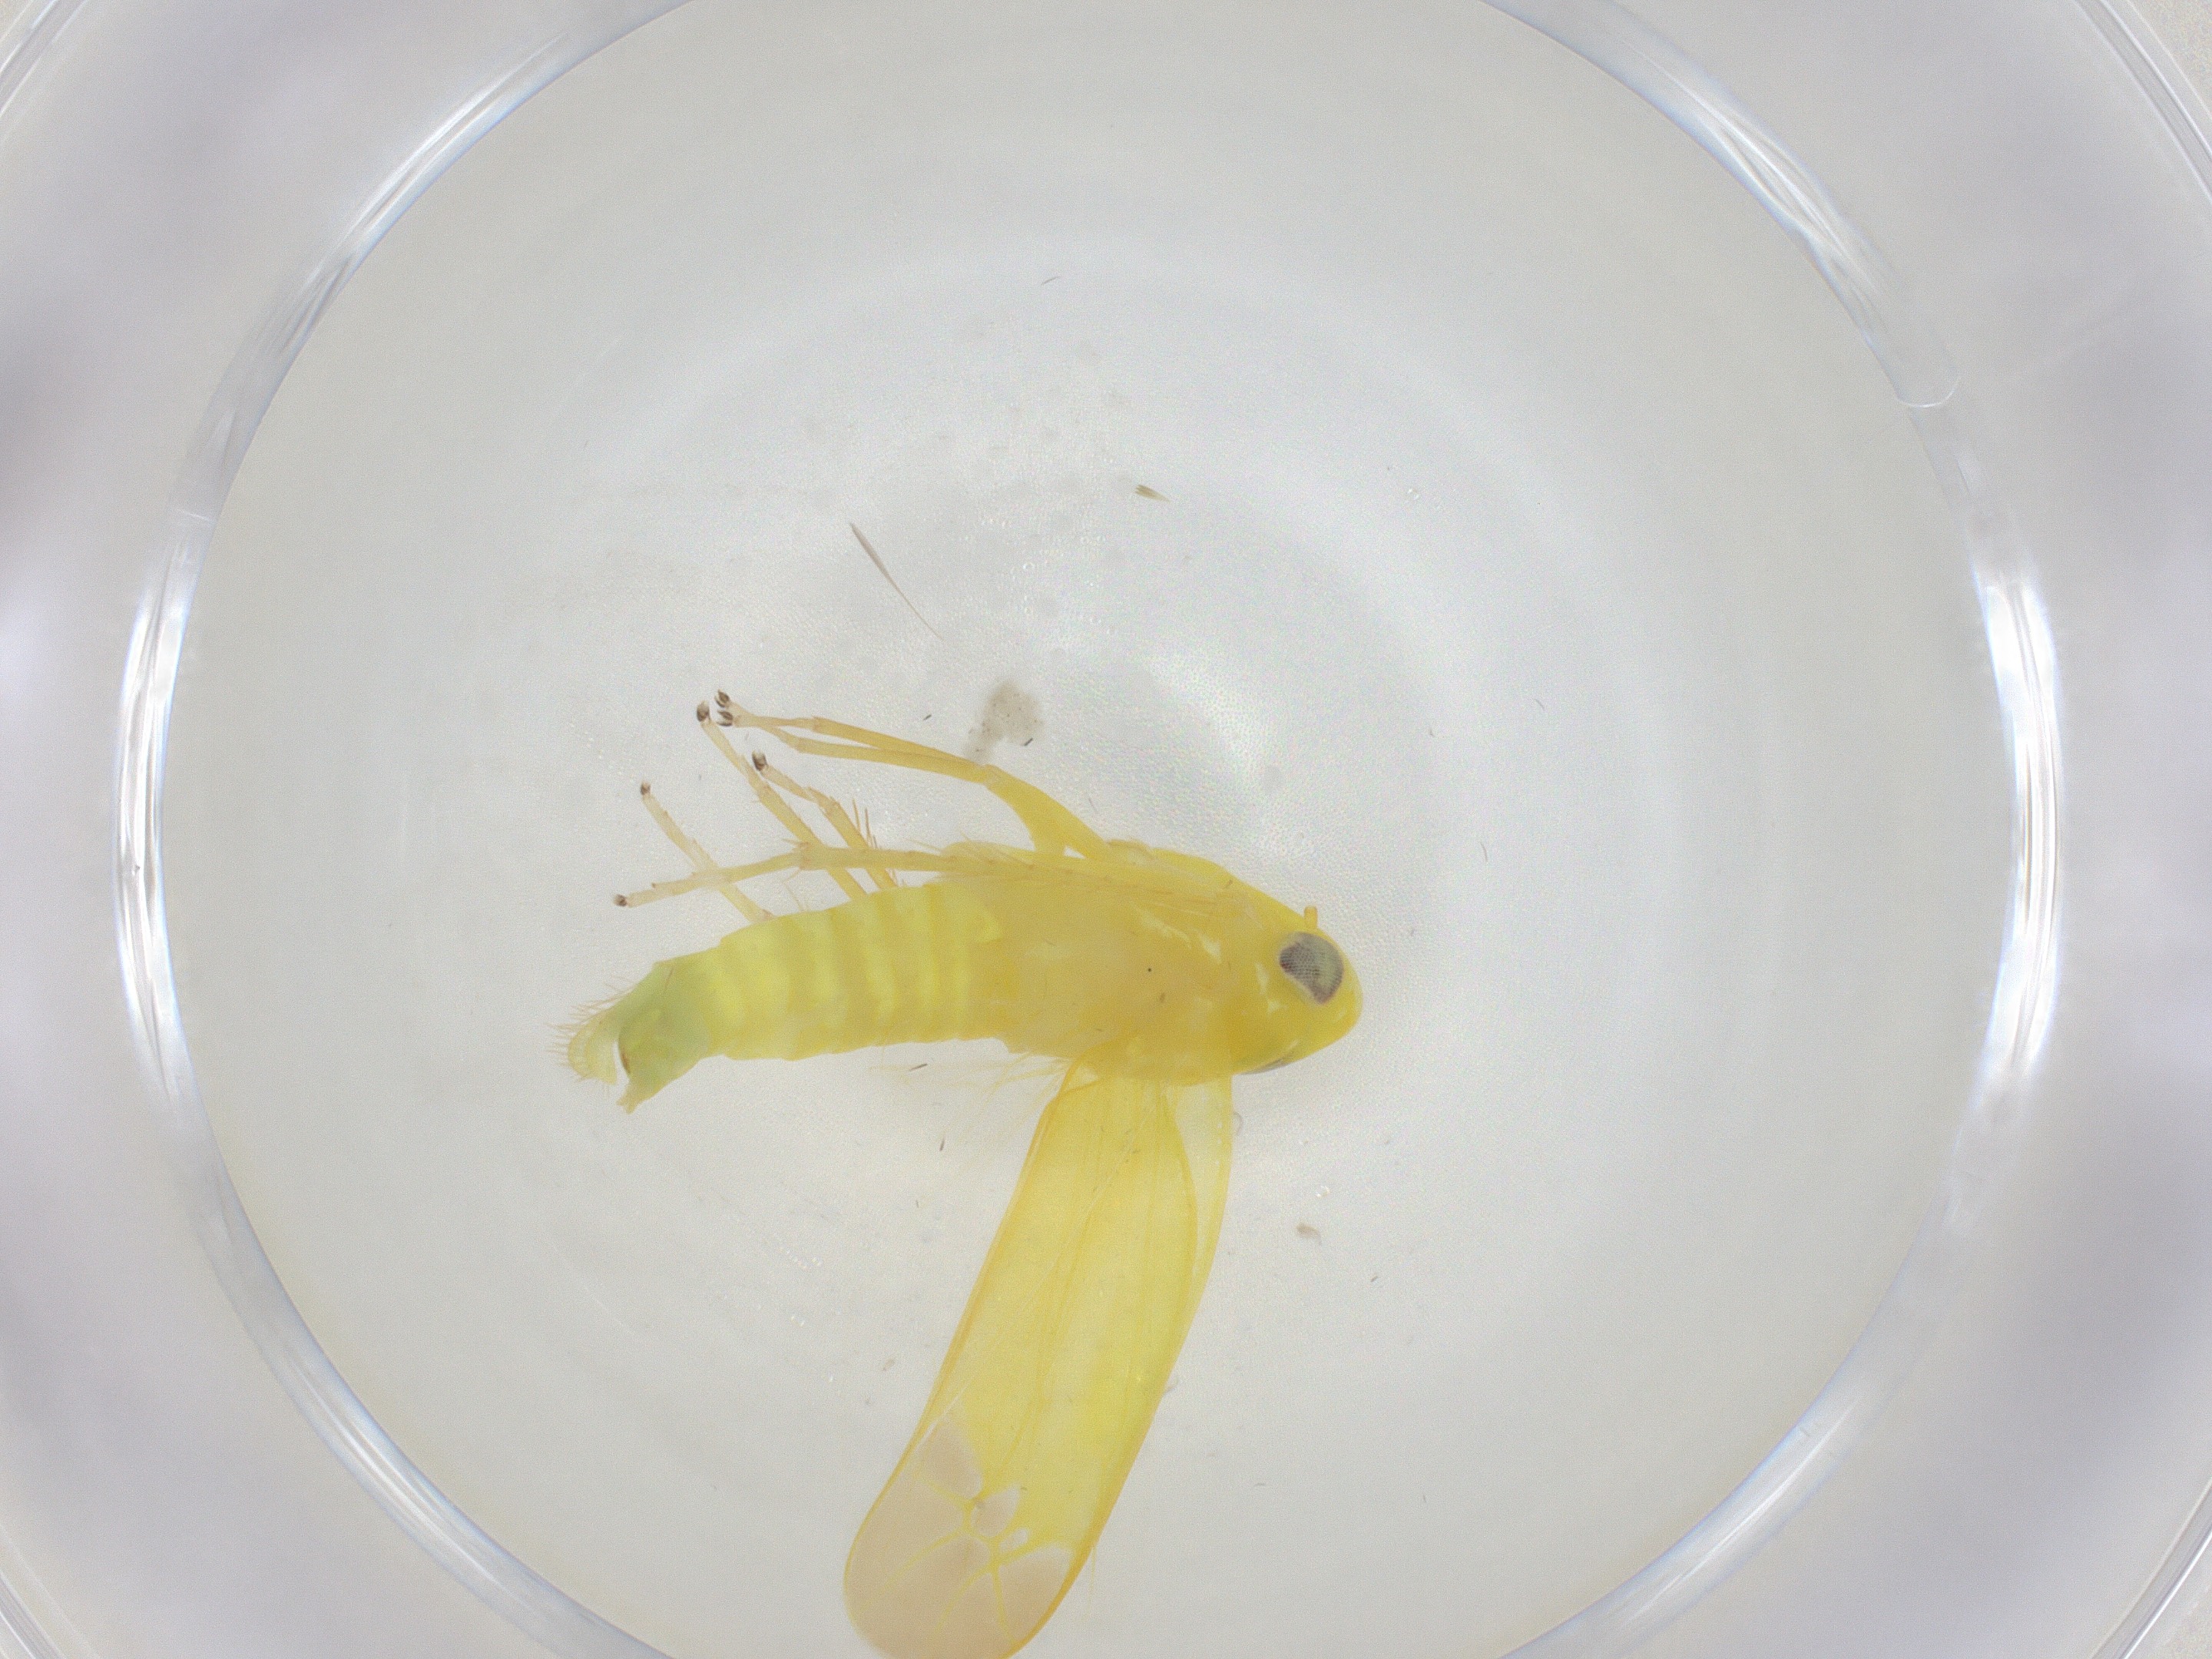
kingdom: Animalia
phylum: Arthropoda
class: Insecta
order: Hemiptera
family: Cicadellidae
